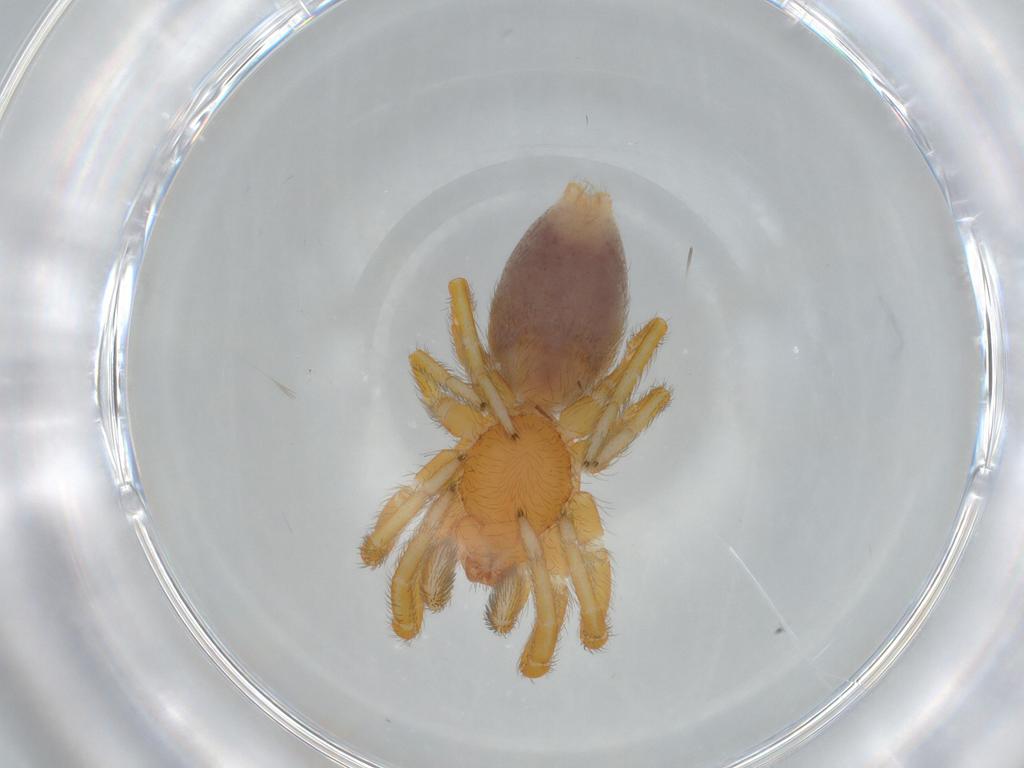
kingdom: Animalia
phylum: Arthropoda
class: Arachnida
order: Araneae
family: Caponiidae
